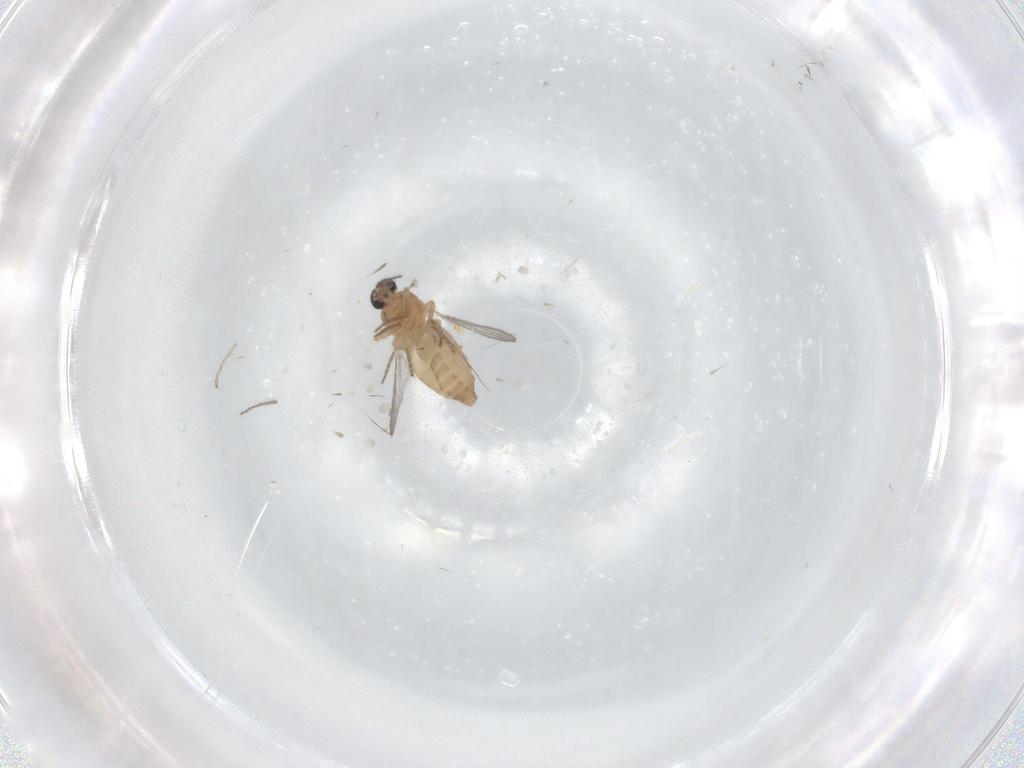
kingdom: Animalia
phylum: Arthropoda
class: Insecta
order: Diptera
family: Ceratopogonidae
